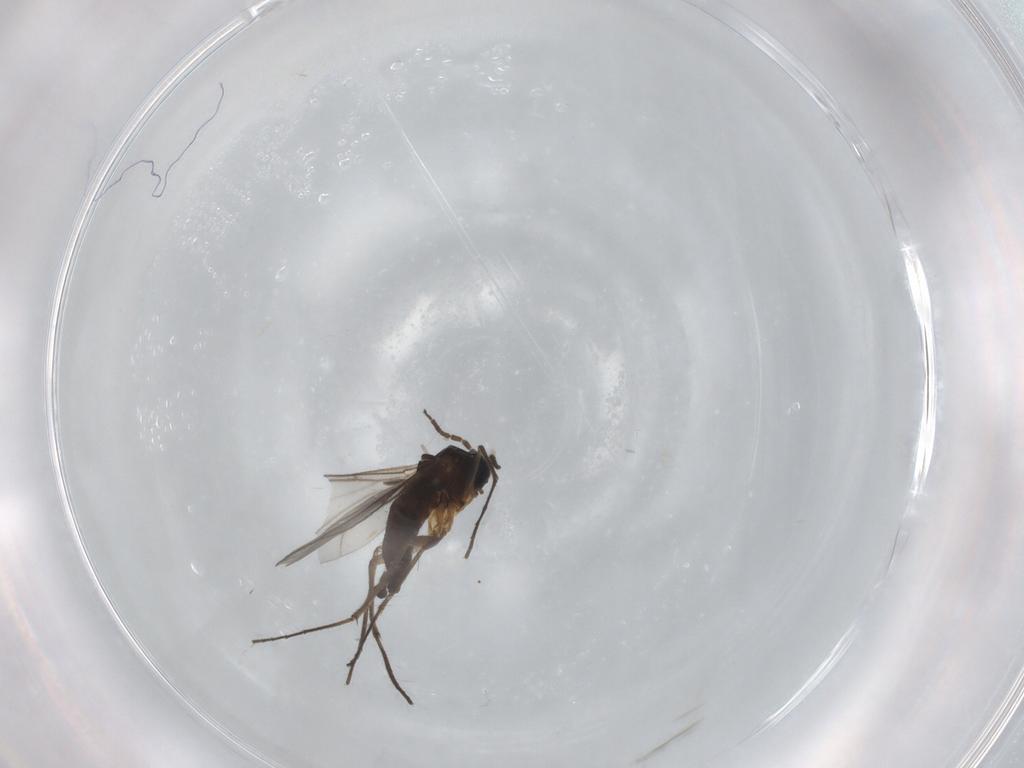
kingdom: Animalia
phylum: Arthropoda
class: Insecta
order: Diptera
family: Sciaridae
